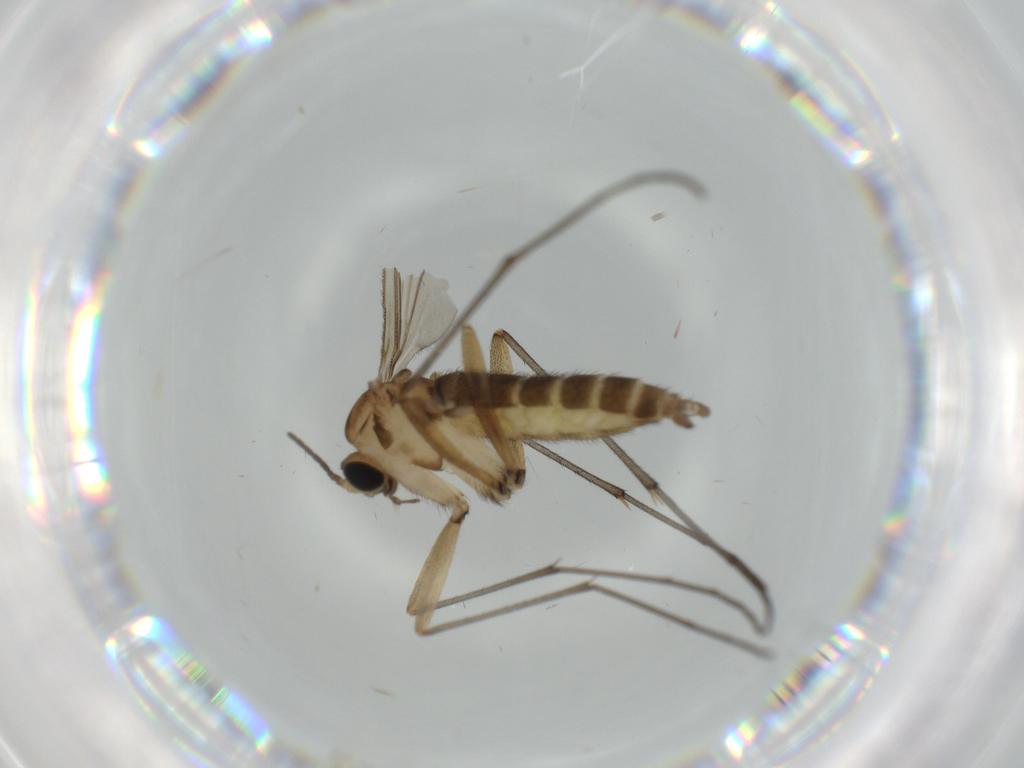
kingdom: Animalia
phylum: Arthropoda
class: Insecta
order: Diptera
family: Sciaridae
